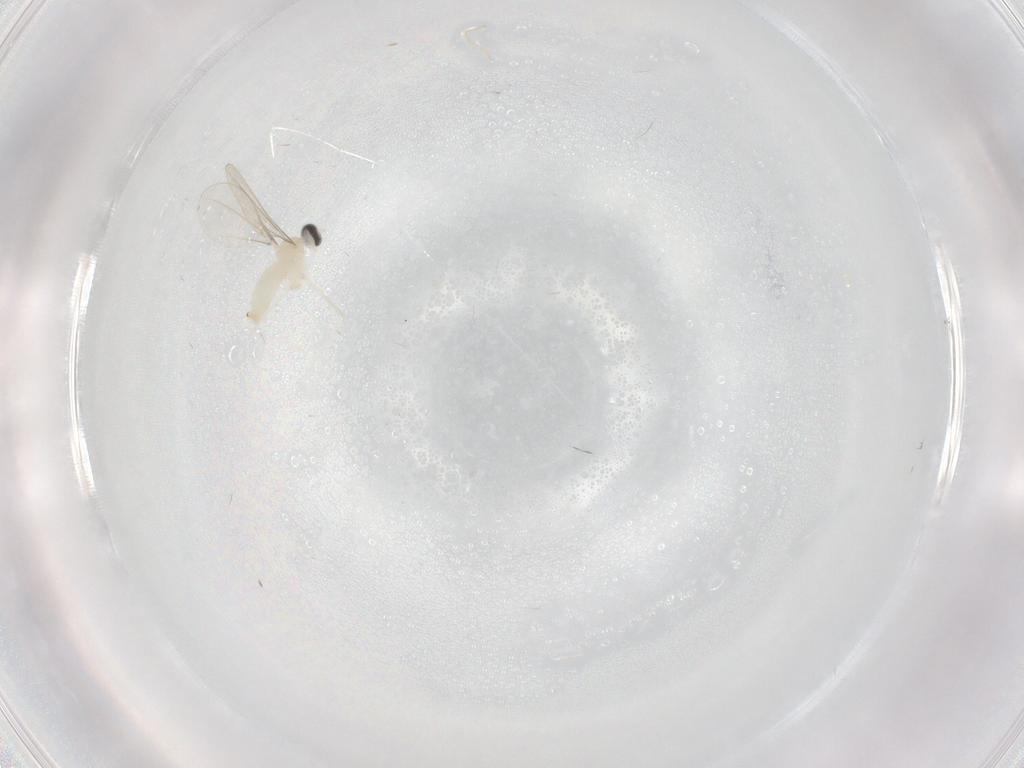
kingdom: Animalia
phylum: Arthropoda
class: Insecta
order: Diptera
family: Cecidomyiidae
